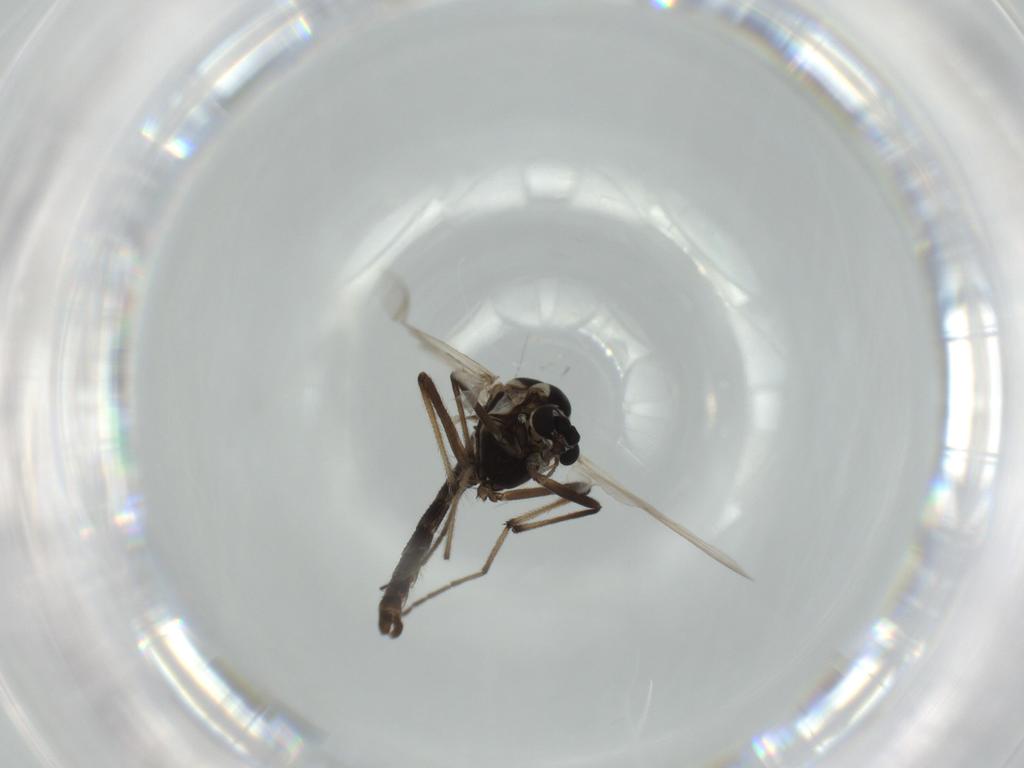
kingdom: Animalia
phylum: Arthropoda
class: Insecta
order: Diptera
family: Chironomidae
